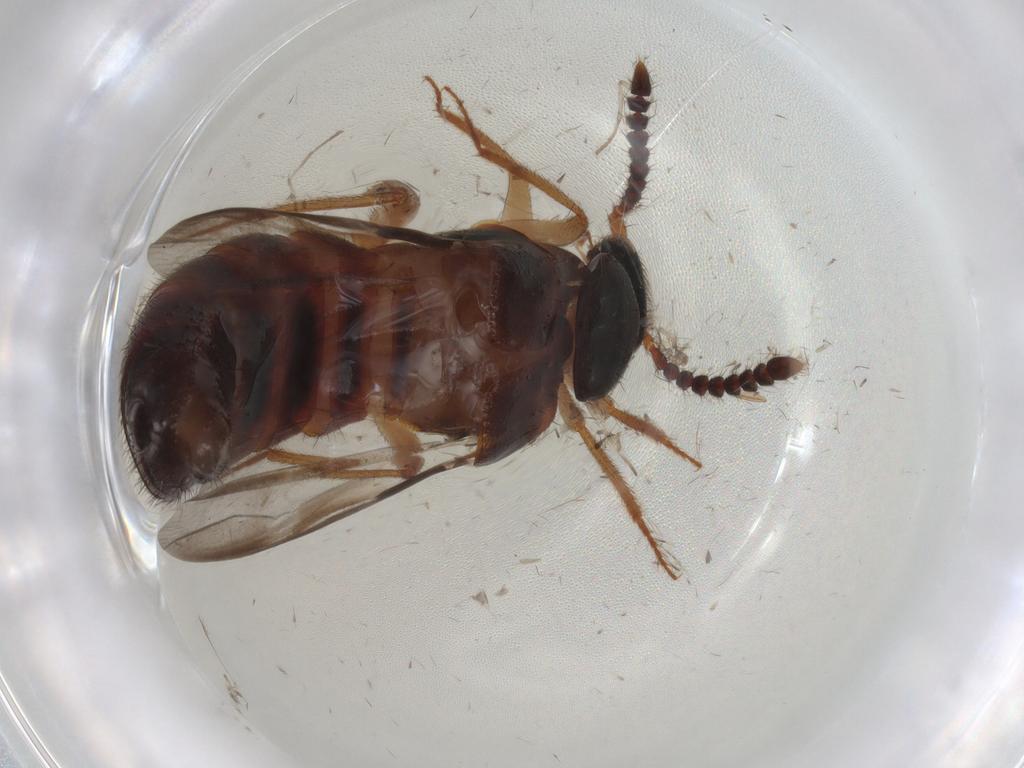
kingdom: Animalia
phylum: Arthropoda
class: Insecta
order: Coleoptera
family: Staphylinidae
